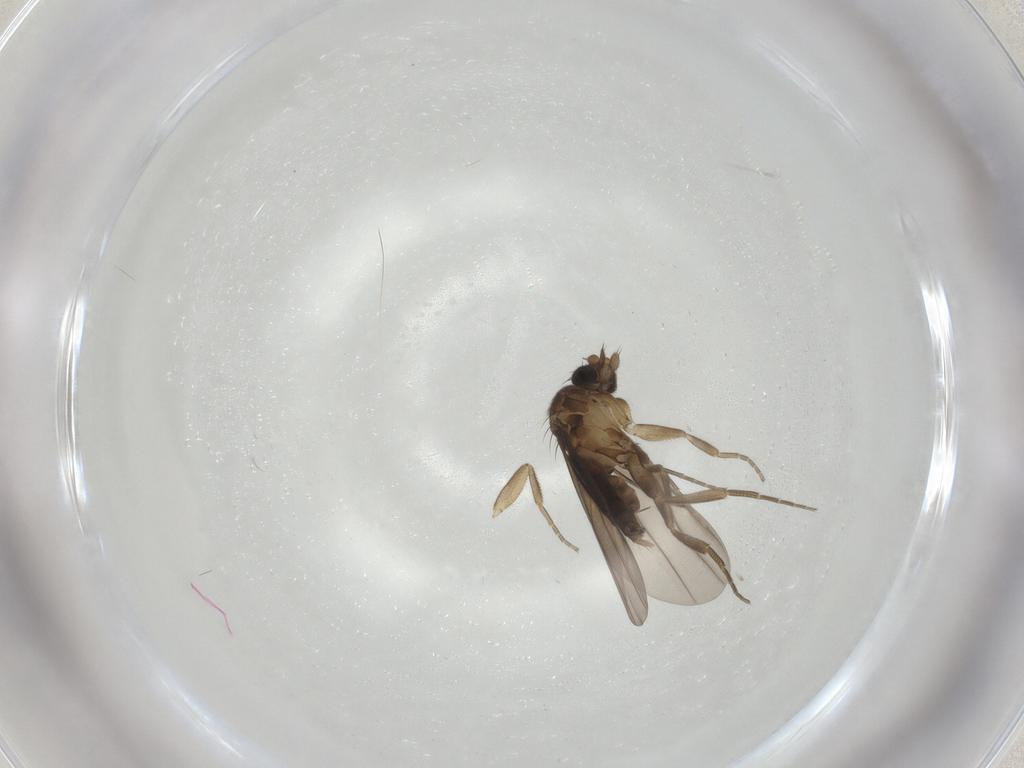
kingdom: Animalia
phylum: Arthropoda
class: Insecta
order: Diptera
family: Phoridae
